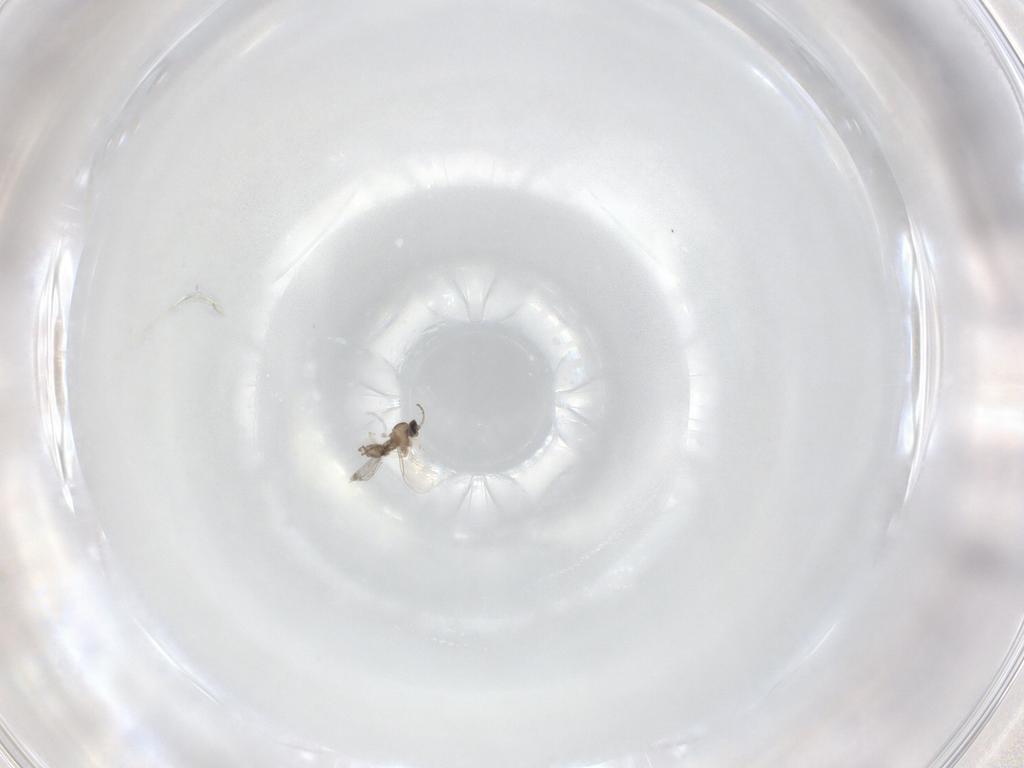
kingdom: Animalia
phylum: Arthropoda
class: Insecta
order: Diptera
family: Cecidomyiidae
